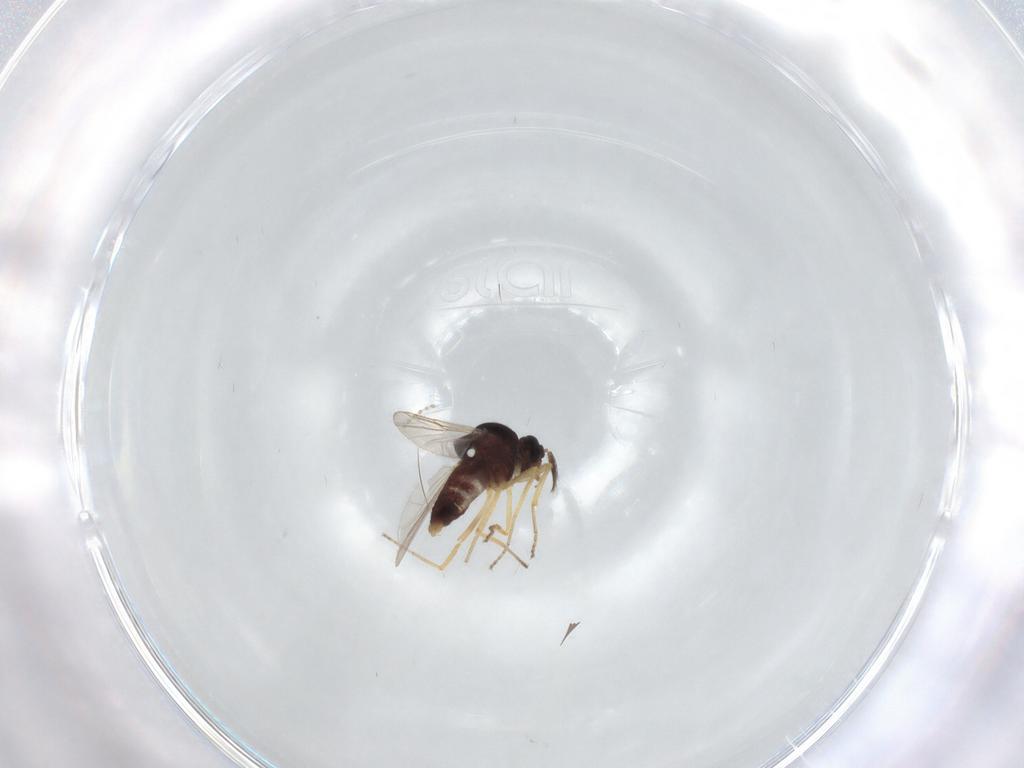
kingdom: Animalia
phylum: Arthropoda
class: Insecta
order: Diptera
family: Ceratopogonidae
